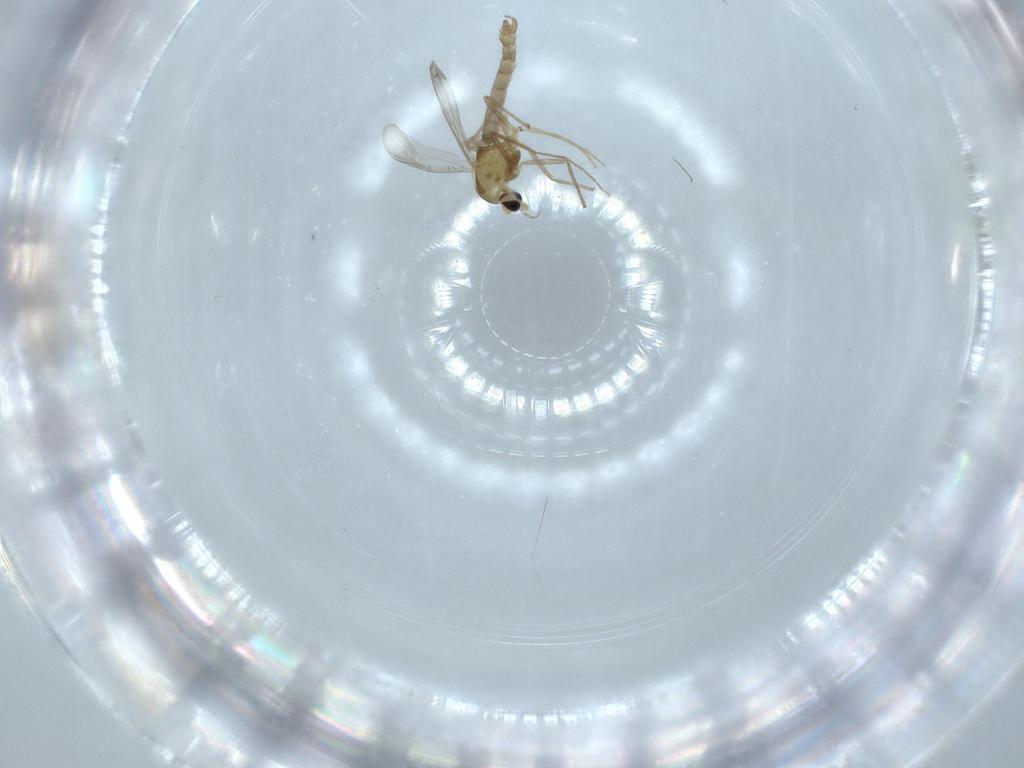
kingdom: Animalia
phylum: Arthropoda
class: Insecta
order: Diptera
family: Chironomidae
